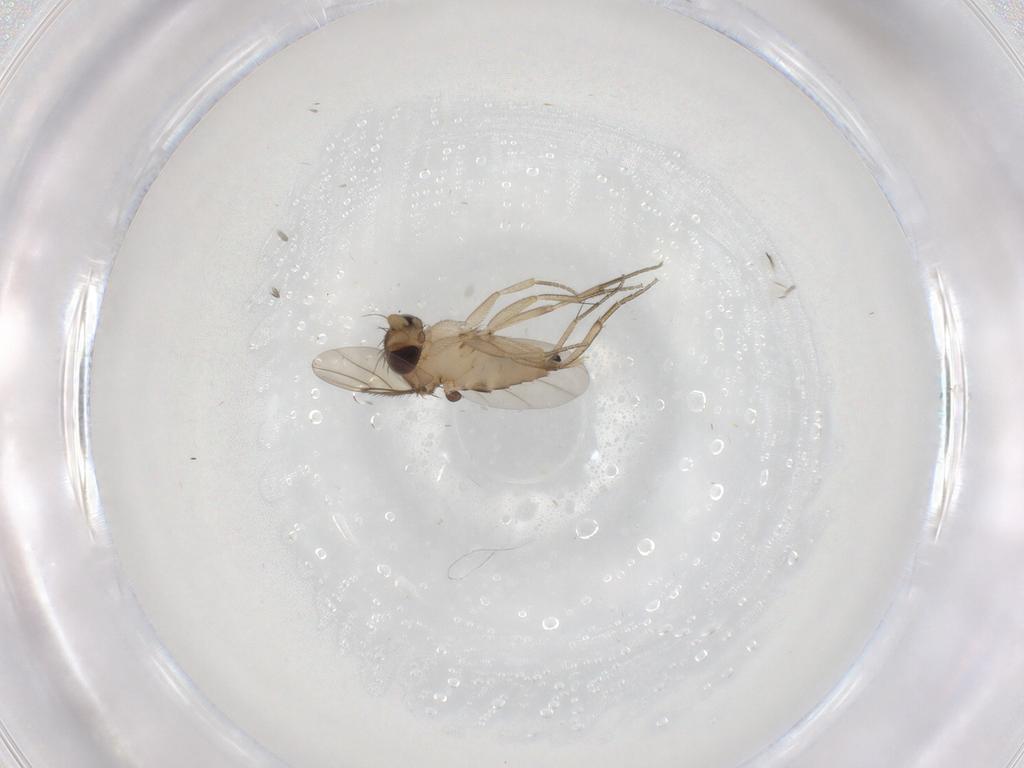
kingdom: Animalia
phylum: Arthropoda
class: Insecta
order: Diptera
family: Phoridae
